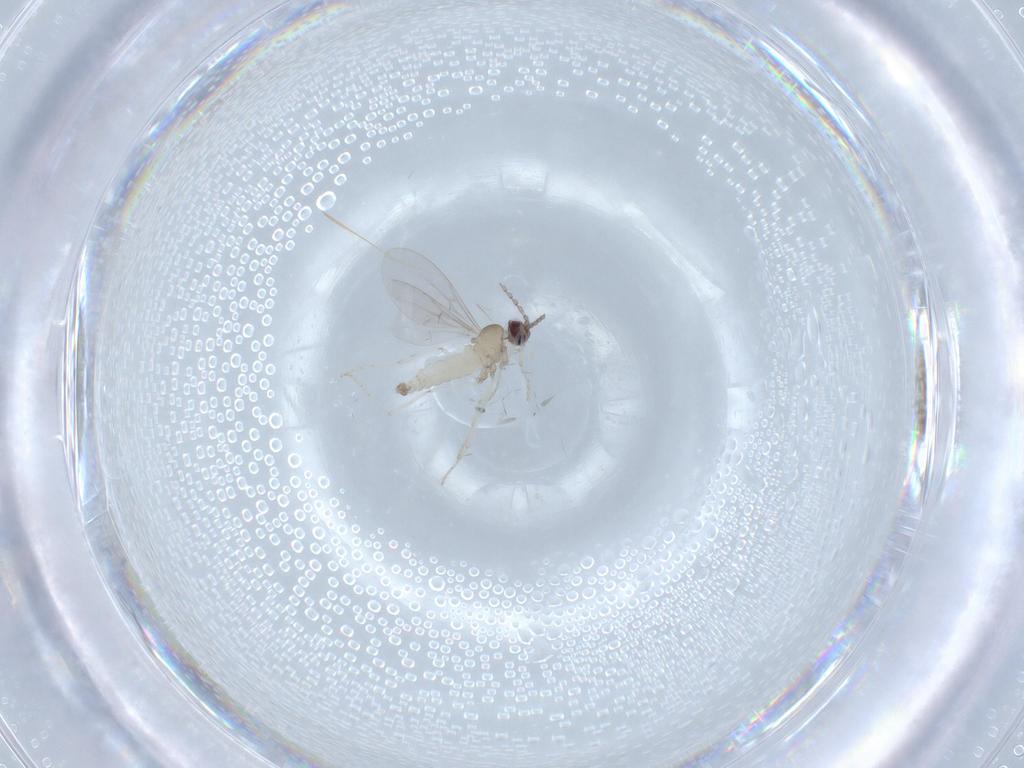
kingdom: Animalia
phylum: Arthropoda
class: Insecta
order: Diptera
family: Cecidomyiidae
